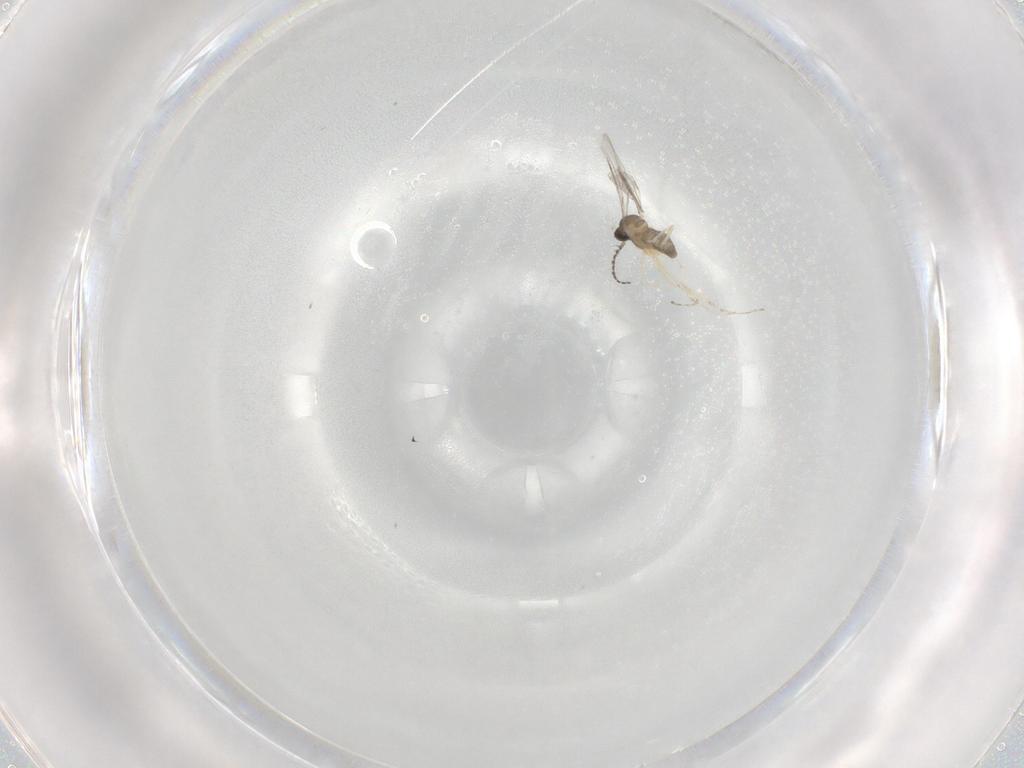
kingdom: Animalia
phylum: Arthropoda
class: Insecta
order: Diptera
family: Cecidomyiidae
